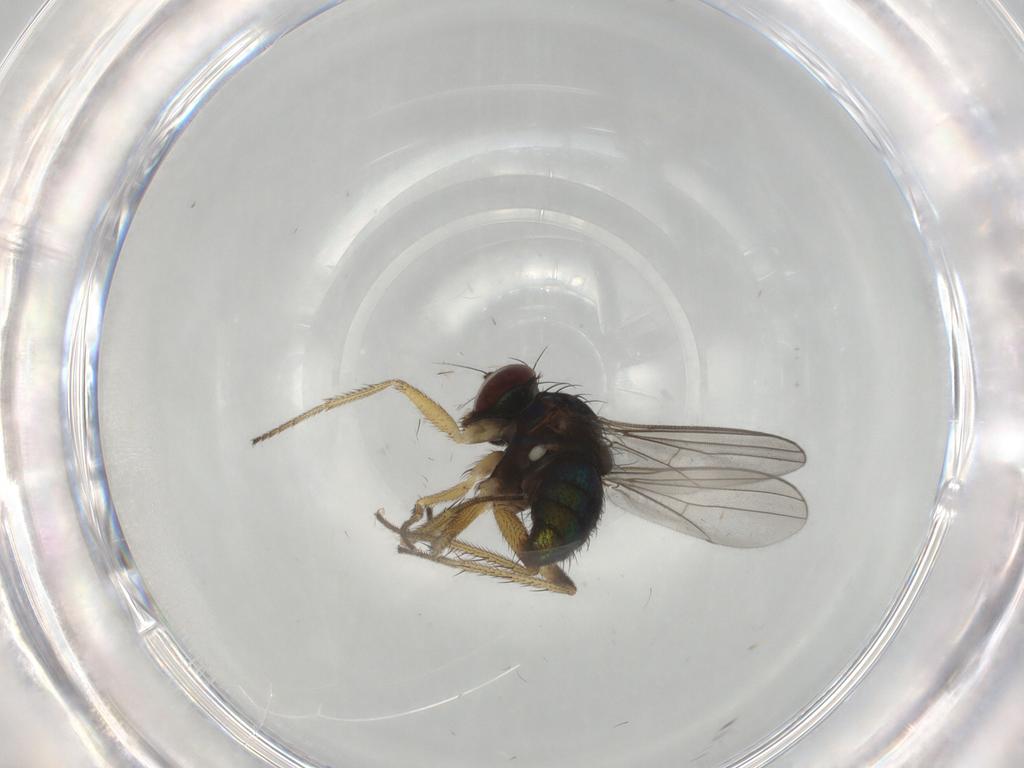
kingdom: Animalia
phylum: Arthropoda
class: Insecta
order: Diptera
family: Dolichopodidae
